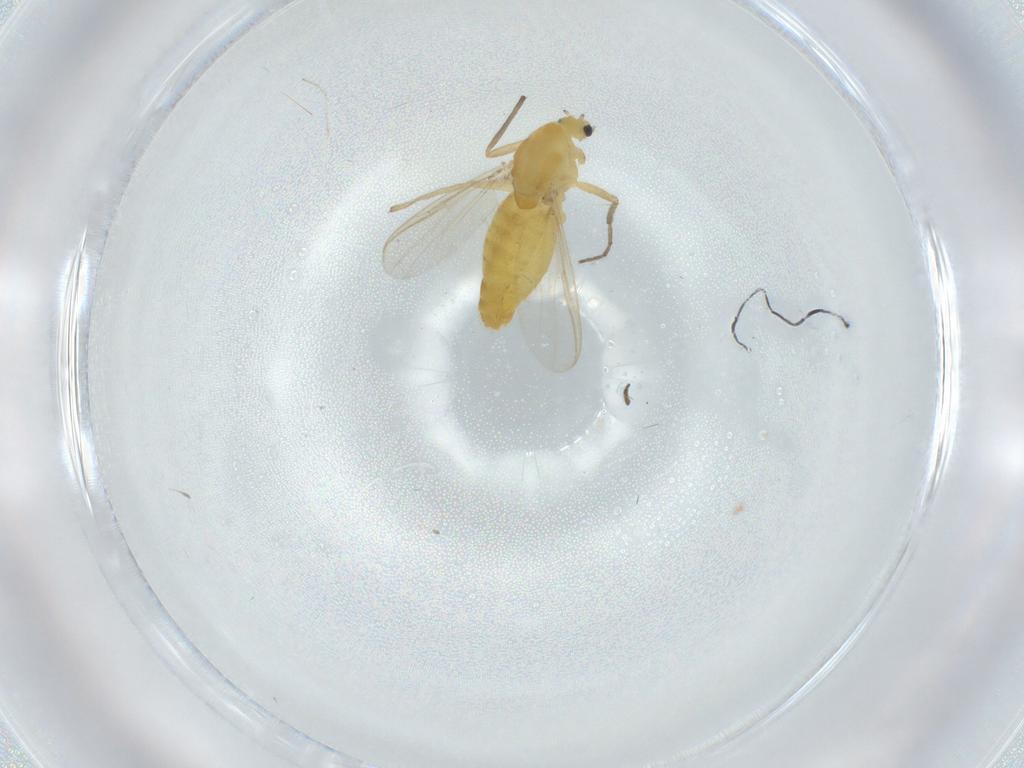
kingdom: Animalia
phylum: Arthropoda
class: Insecta
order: Diptera
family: Chironomidae
